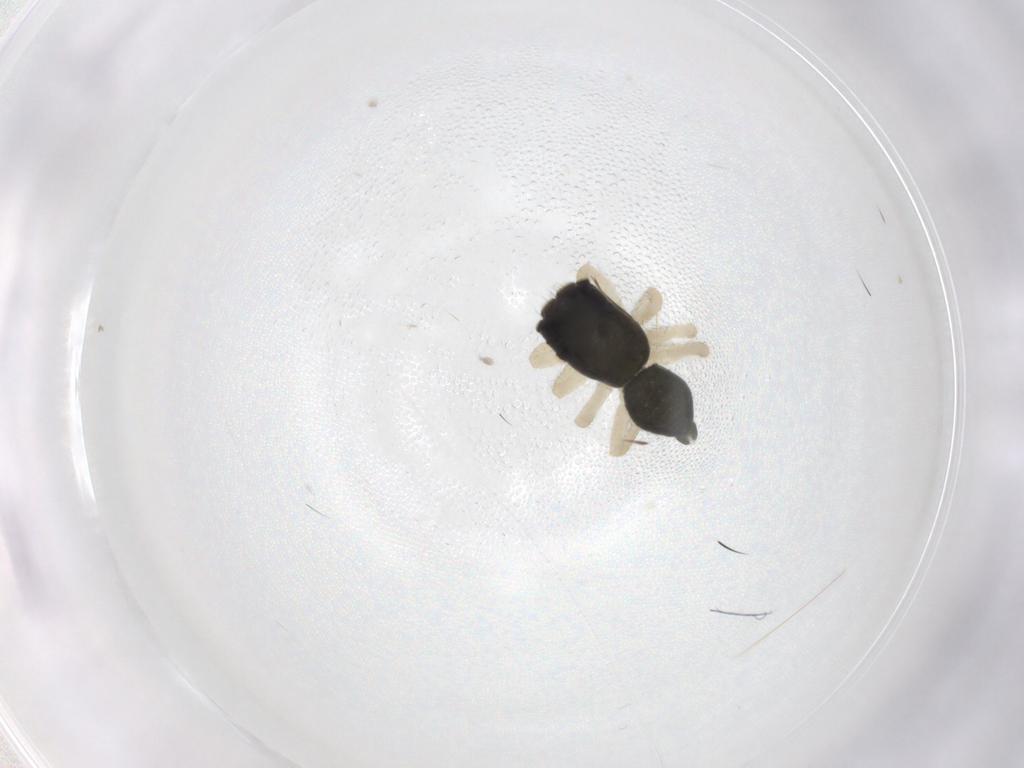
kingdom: Animalia
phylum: Arthropoda
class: Arachnida
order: Araneae
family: Salticidae
